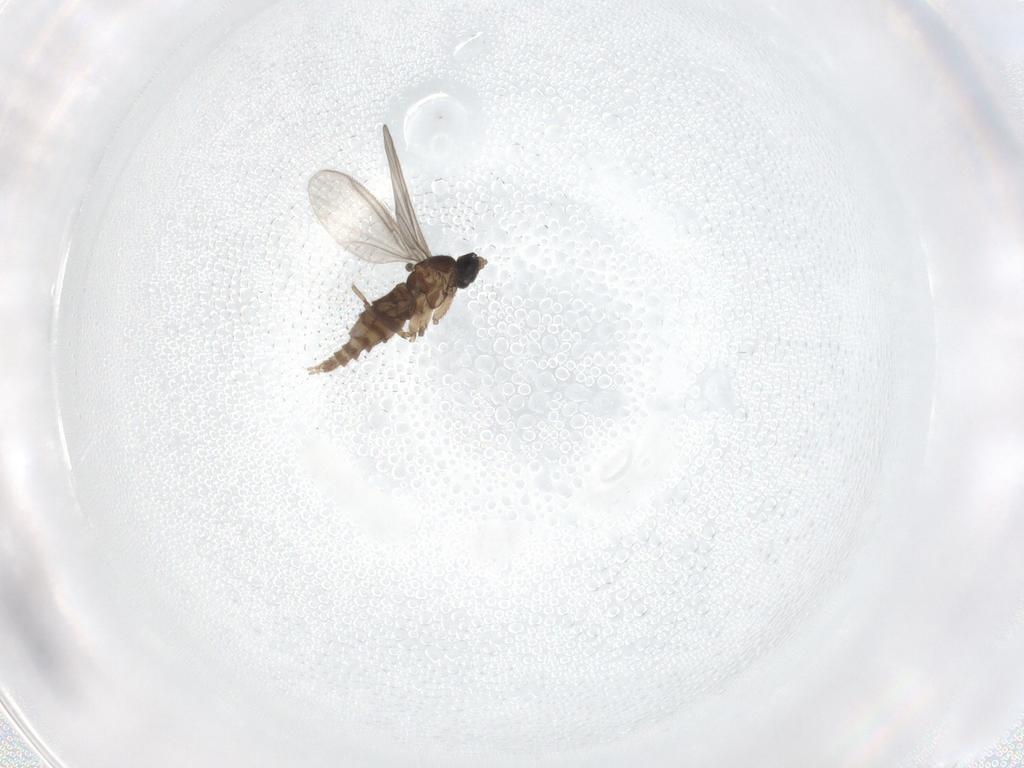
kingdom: Animalia
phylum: Arthropoda
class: Insecta
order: Diptera
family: Sciaridae
